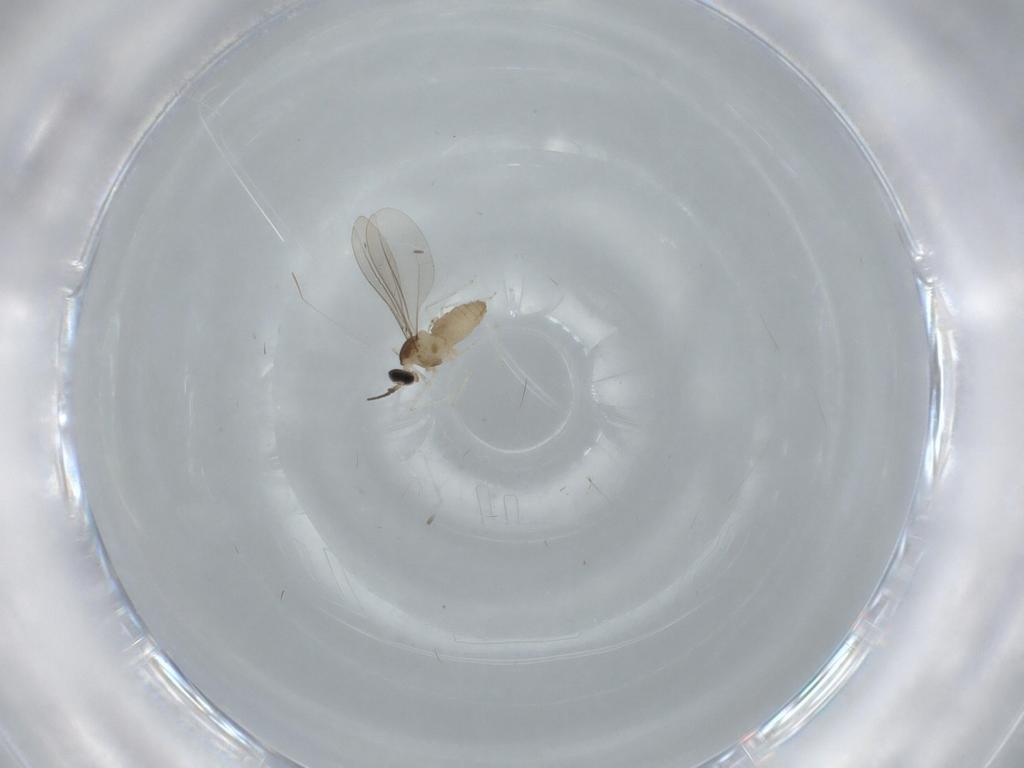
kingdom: Animalia
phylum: Arthropoda
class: Insecta
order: Diptera
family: Cecidomyiidae
